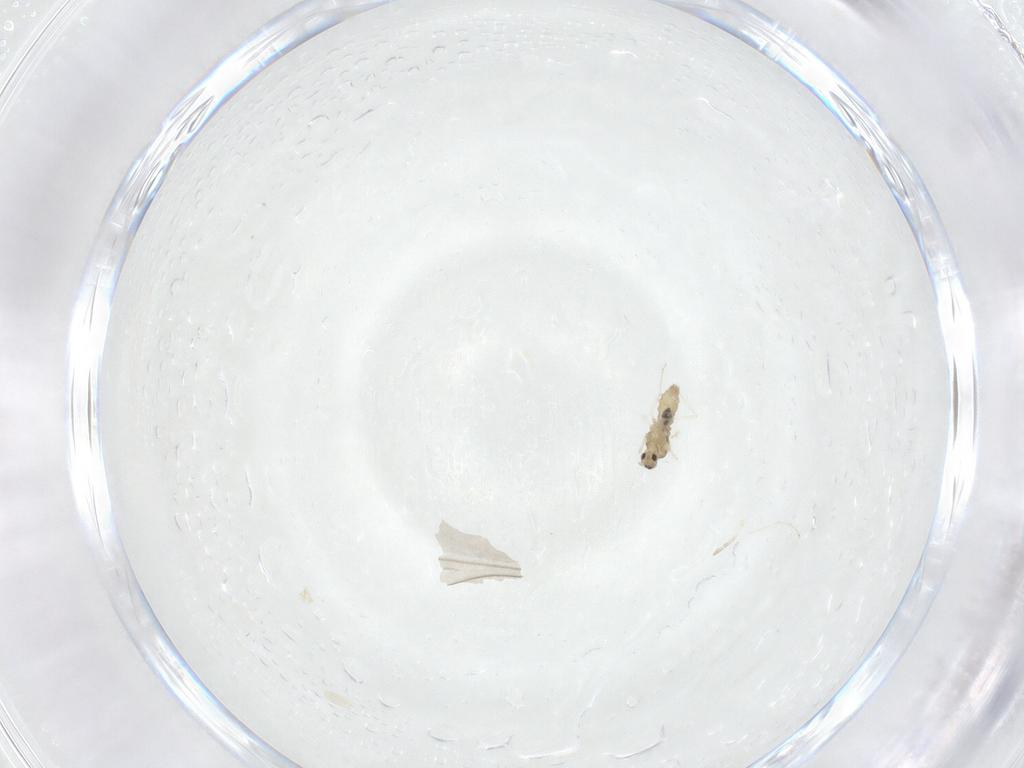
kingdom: Animalia
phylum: Arthropoda
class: Insecta
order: Diptera
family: Cecidomyiidae
